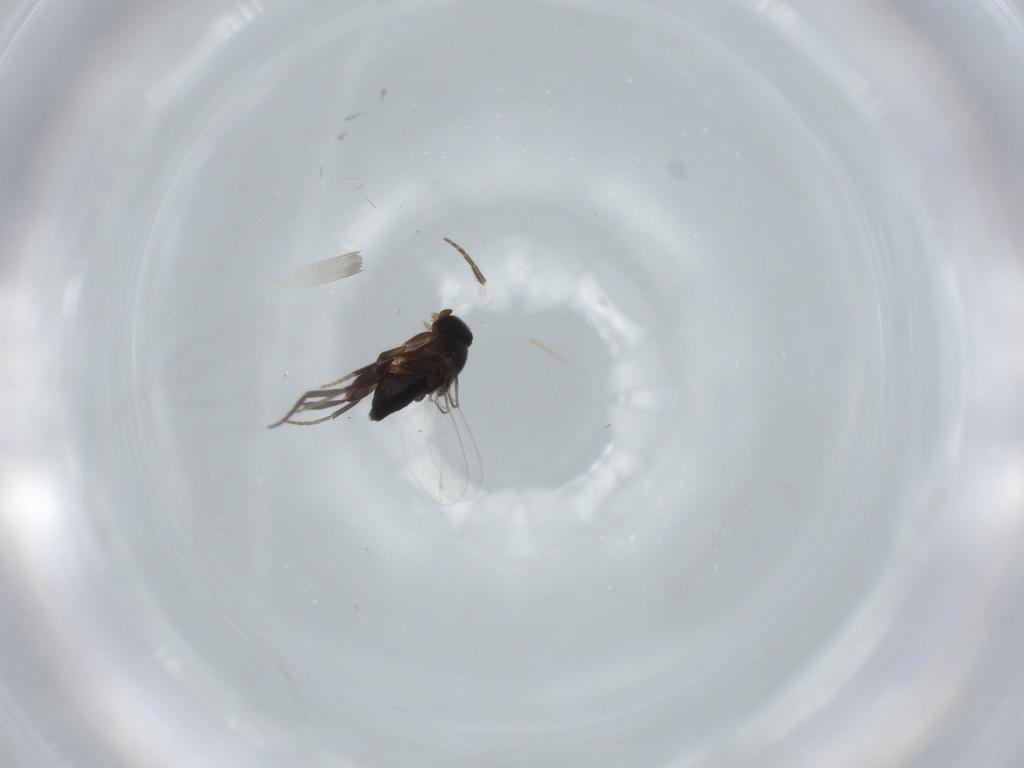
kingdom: Animalia
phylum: Arthropoda
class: Insecta
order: Diptera
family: Phoridae
